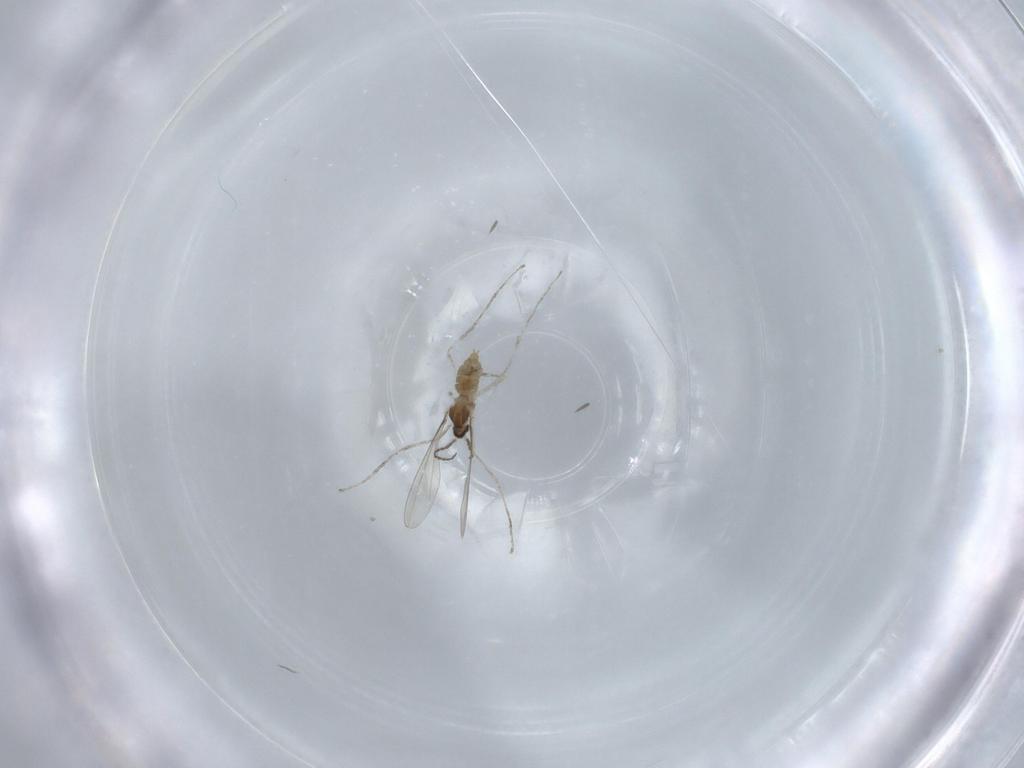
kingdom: Animalia
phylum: Arthropoda
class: Insecta
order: Diptera
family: Cecidomyiidae
